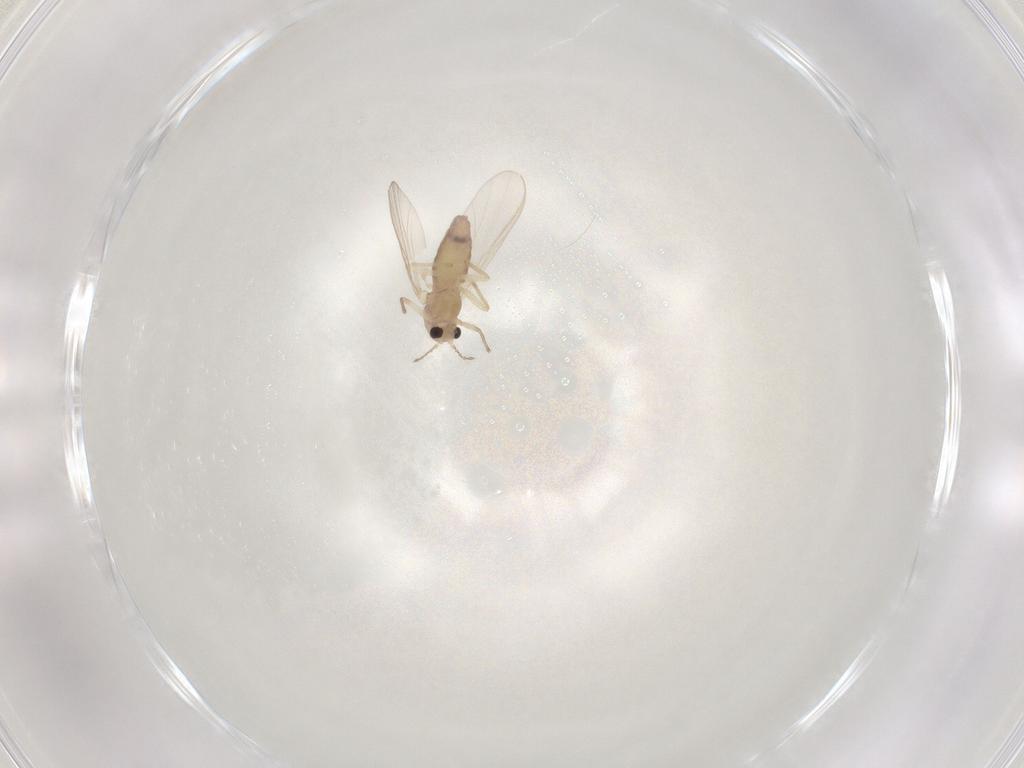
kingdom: Animalia
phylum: Arthropoda
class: Insecta
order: Diptera
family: Chironomidae
